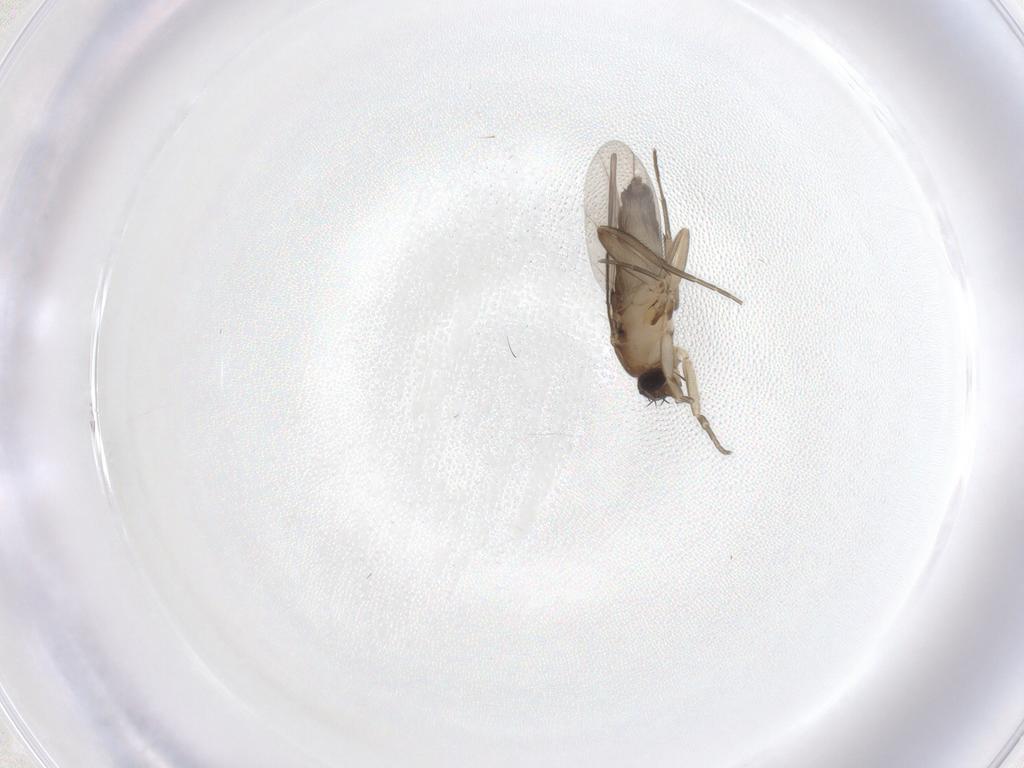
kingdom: Animalia
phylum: Arthropoda
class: Insecta
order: Diptera
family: Phoridae
